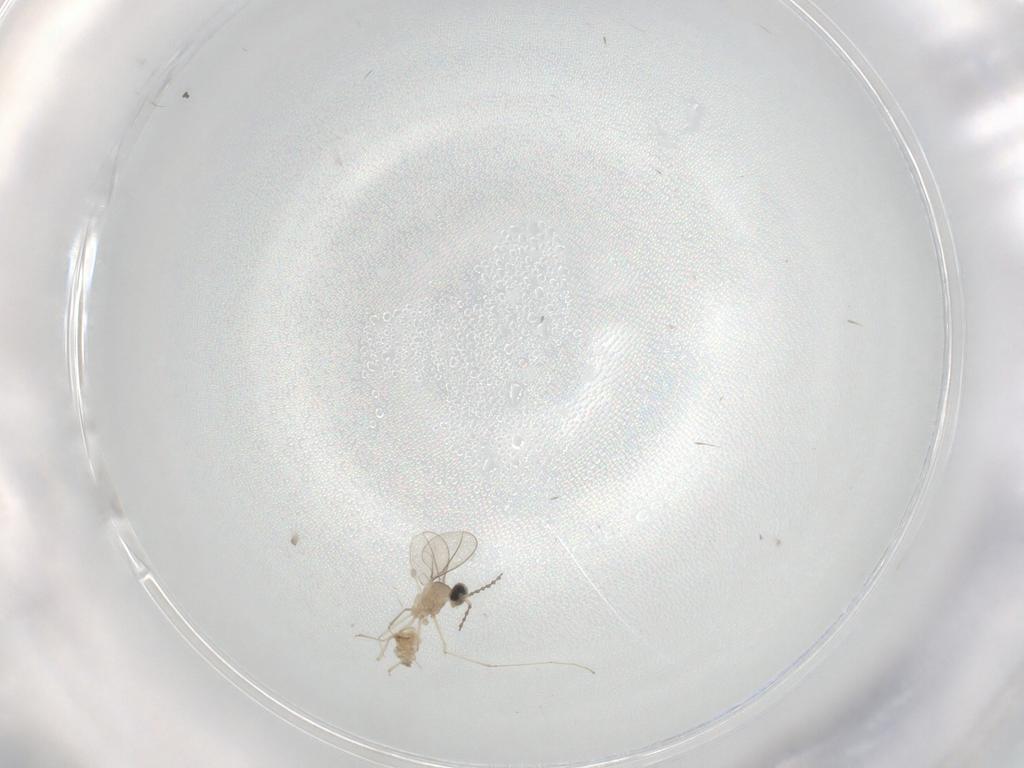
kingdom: Animalia
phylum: Arthropoda
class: Insecta
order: Diptera
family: Cecidomyiidae
